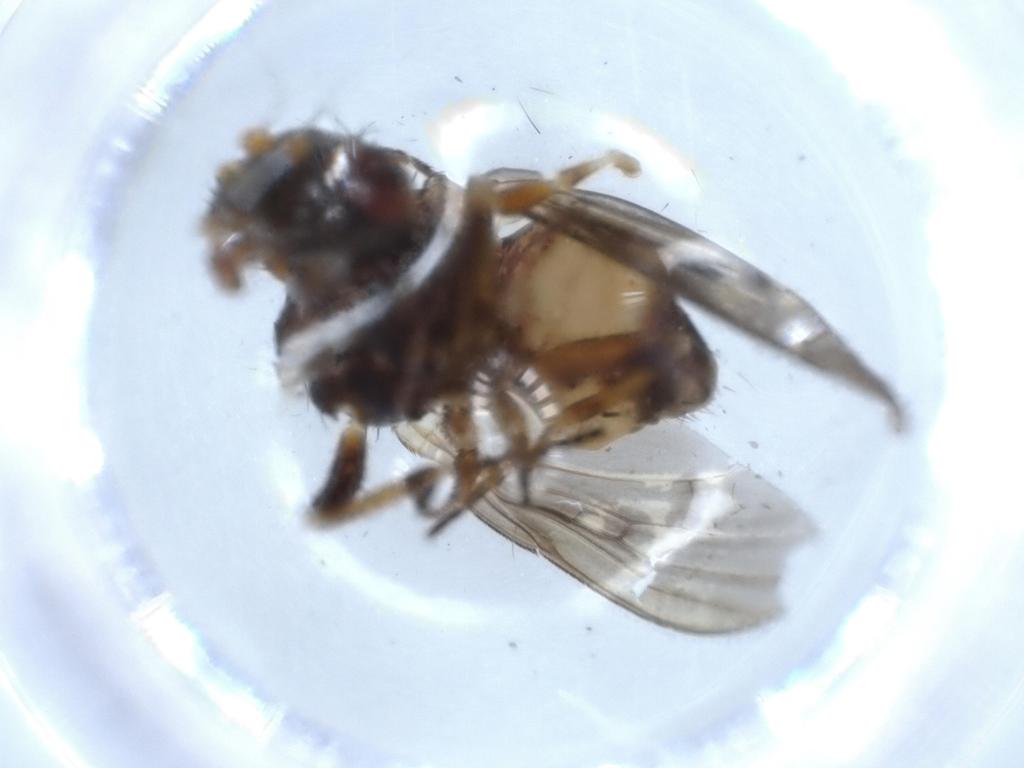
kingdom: Animalia
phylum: Arthropoda
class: Insecta
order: Diptera
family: Odiniidae
